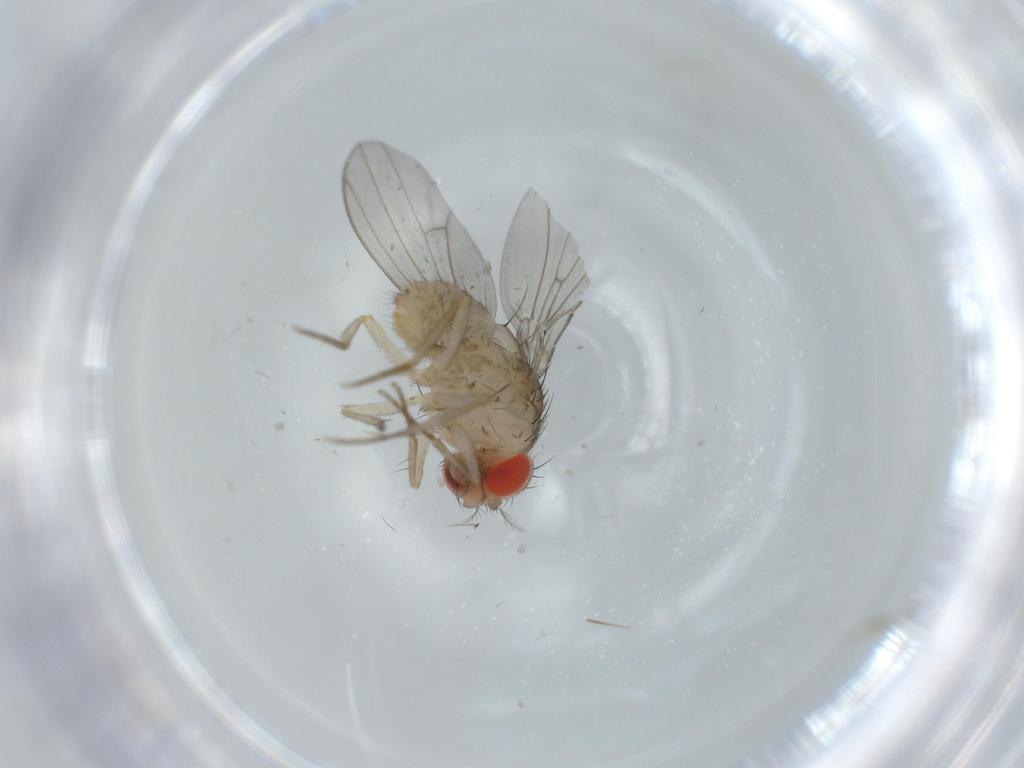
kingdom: Animalia
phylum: Arthropoda
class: Insecta
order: Diptera
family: Drosophilidae
